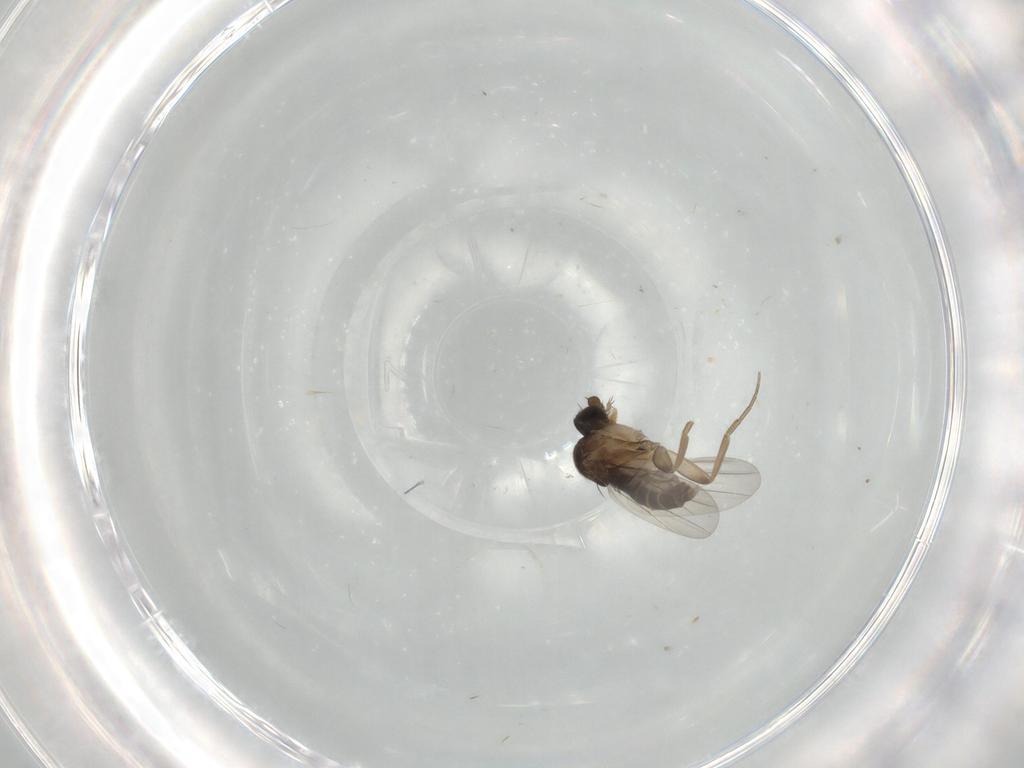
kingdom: Animalia
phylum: Arthropoda
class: Insecta
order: Diptera
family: Phoridae
